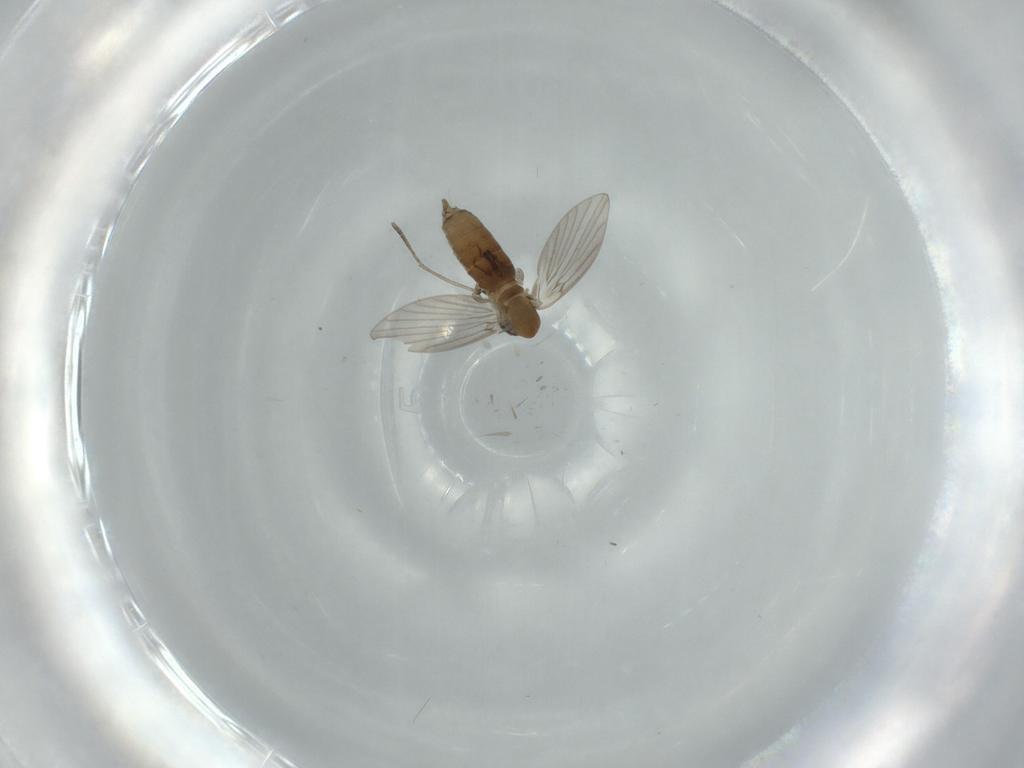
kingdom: Animalia
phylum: Arthropoda
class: Insecta
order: Diptera
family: Psychodidae
